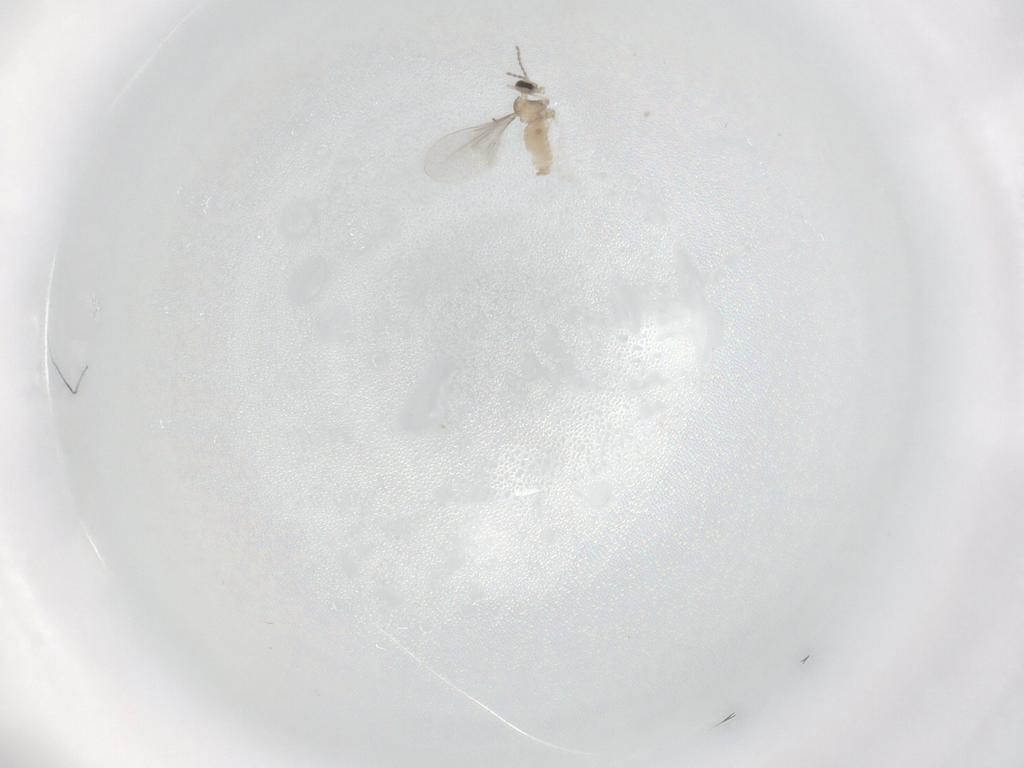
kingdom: Animalia
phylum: Arthropoda
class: Insecta
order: Diptera
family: Cecidomyiidae
